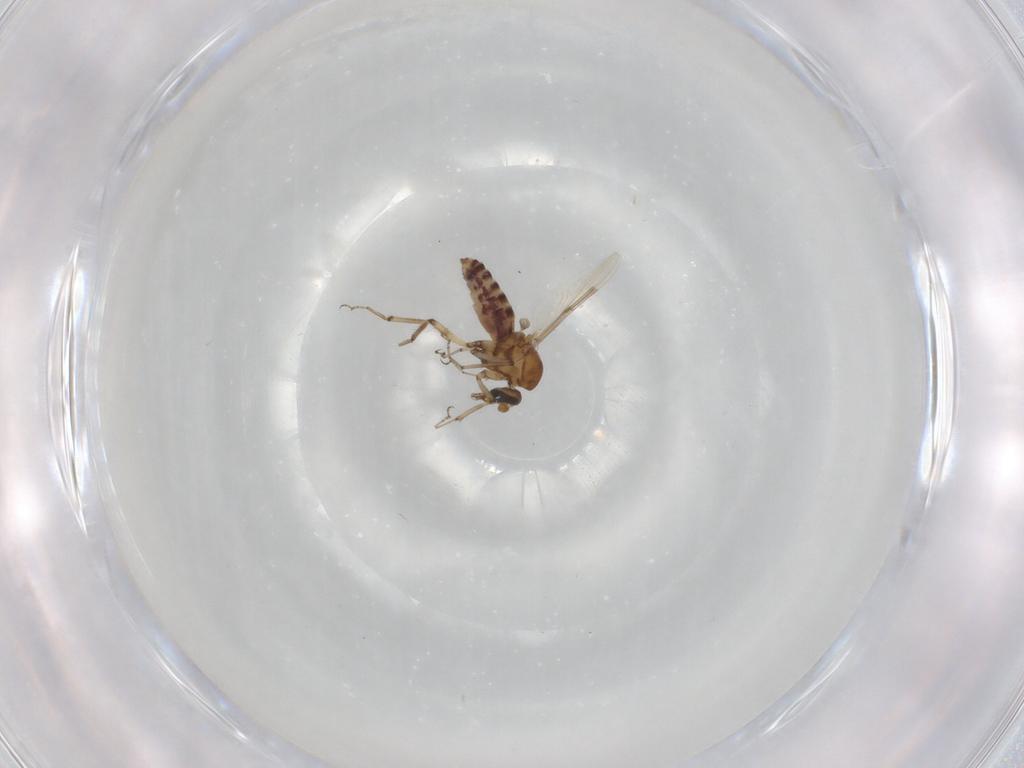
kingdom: Animalia
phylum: Arthropoda
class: Insecta
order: Diptera
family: Ceratopogonidae
